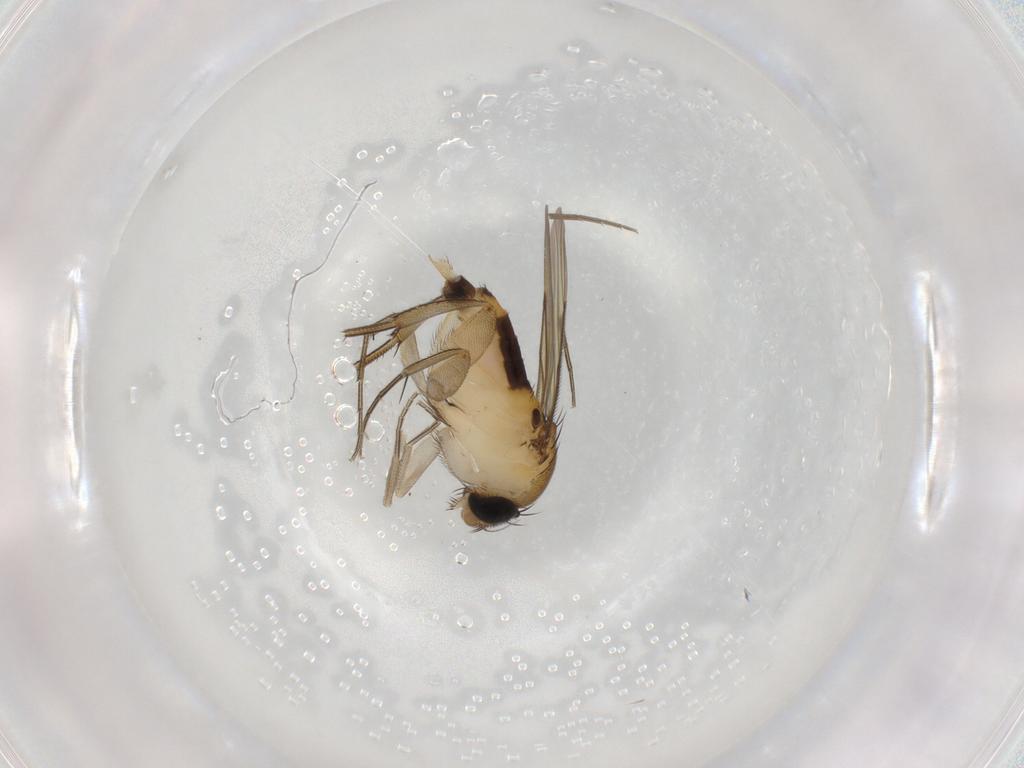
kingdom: Animalia
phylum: Arthropoda
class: Insecta
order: Diptera
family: Phoridae
